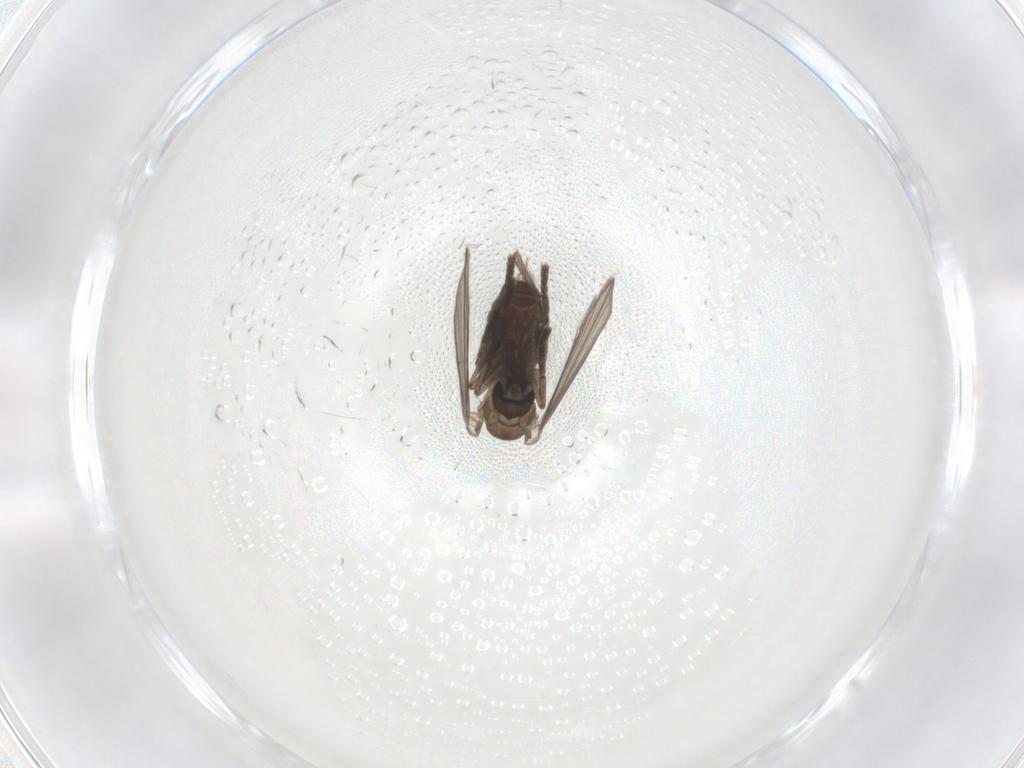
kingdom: Animalia
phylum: Arthropoda
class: Insecta
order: Diptera
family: Psychodidae
